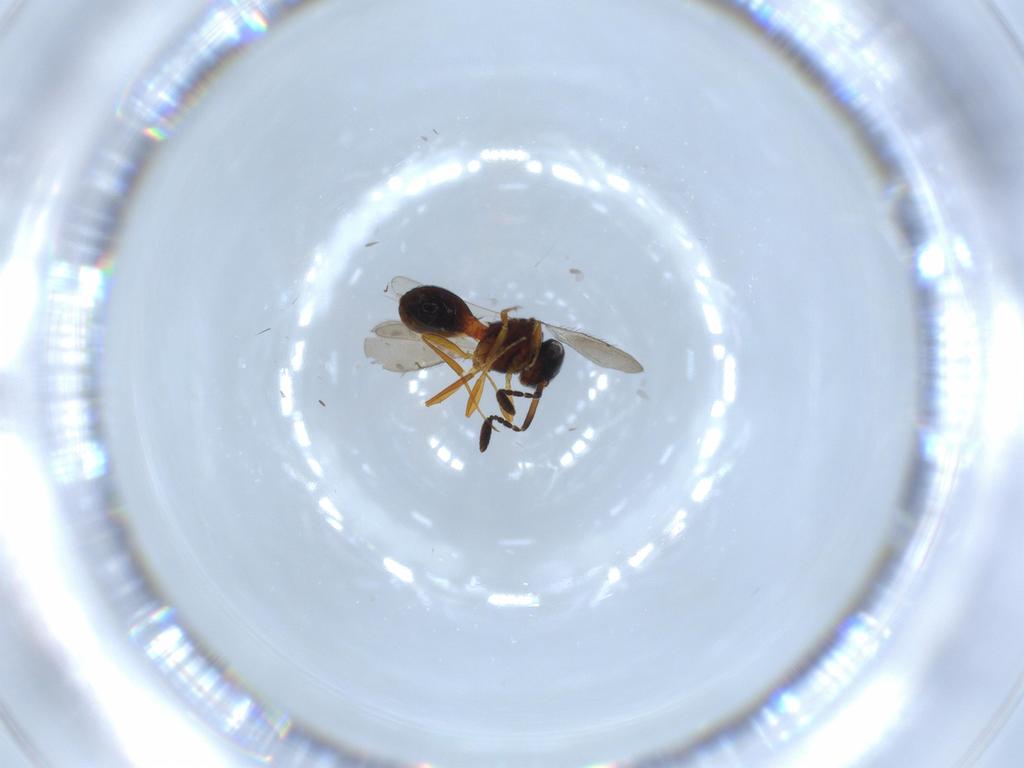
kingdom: Animalia
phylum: Arthropoda
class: Insecta
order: Hymenoptera
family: Scelionidae
